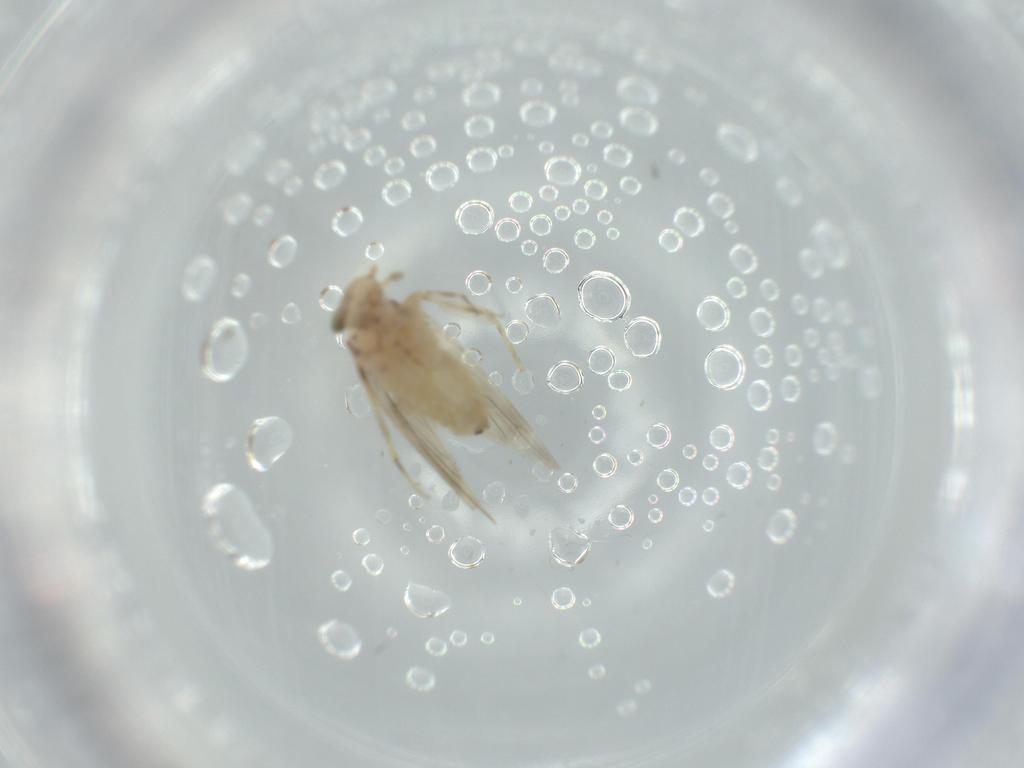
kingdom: Animalia
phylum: Arthropoda
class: Insecta
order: Psocodea
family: Lepidopsocidae
